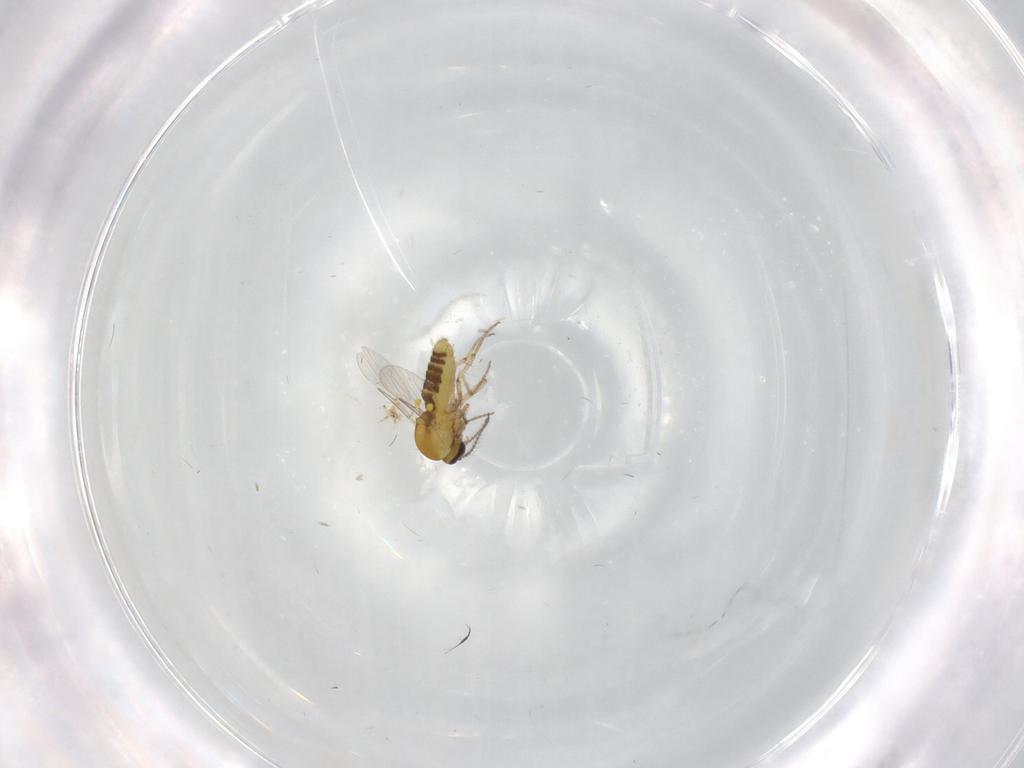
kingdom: Animalia
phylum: Arthropoda
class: Insecta
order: Diptera
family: Ceratopogonidae
